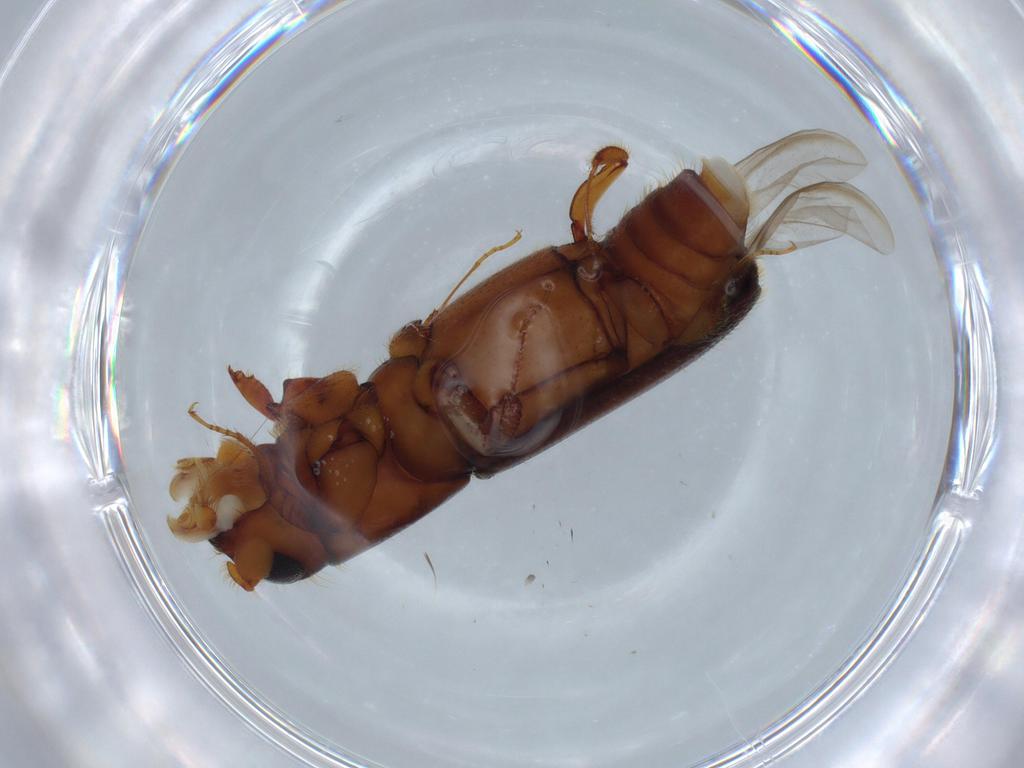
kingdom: Animalia
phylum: Arthropoda
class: Insecta
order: Coleoptera
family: Curculionidae
